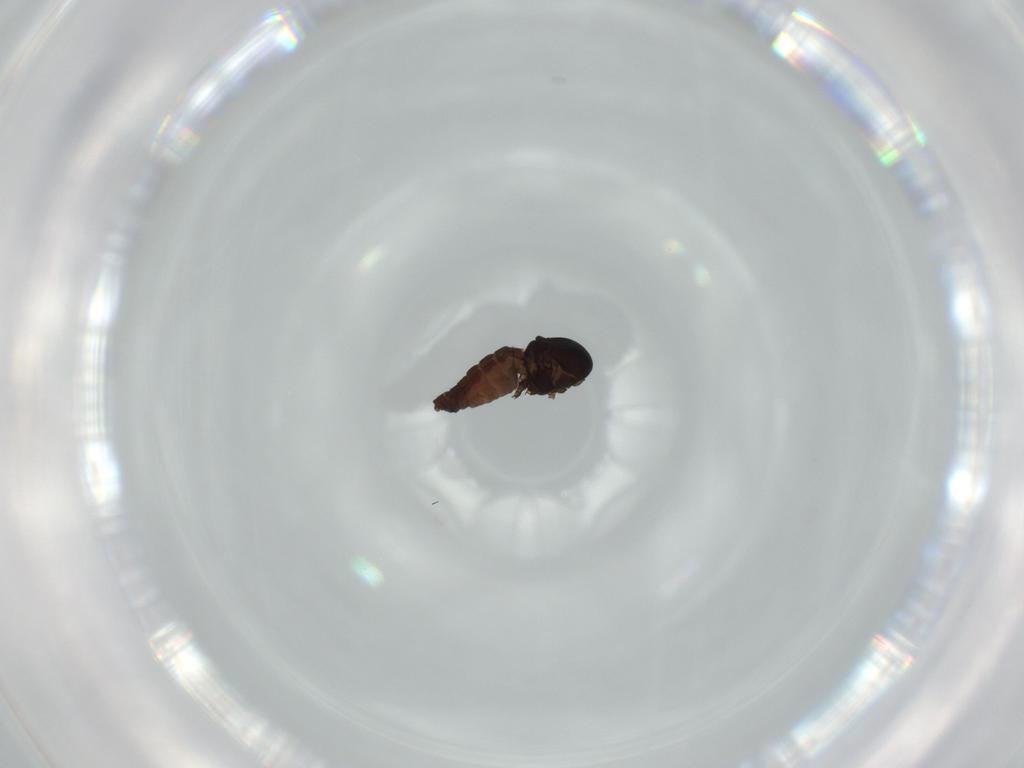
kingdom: Animalia
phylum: Arthropoda
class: Insecta
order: Diptera
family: Ceratopogonidae
